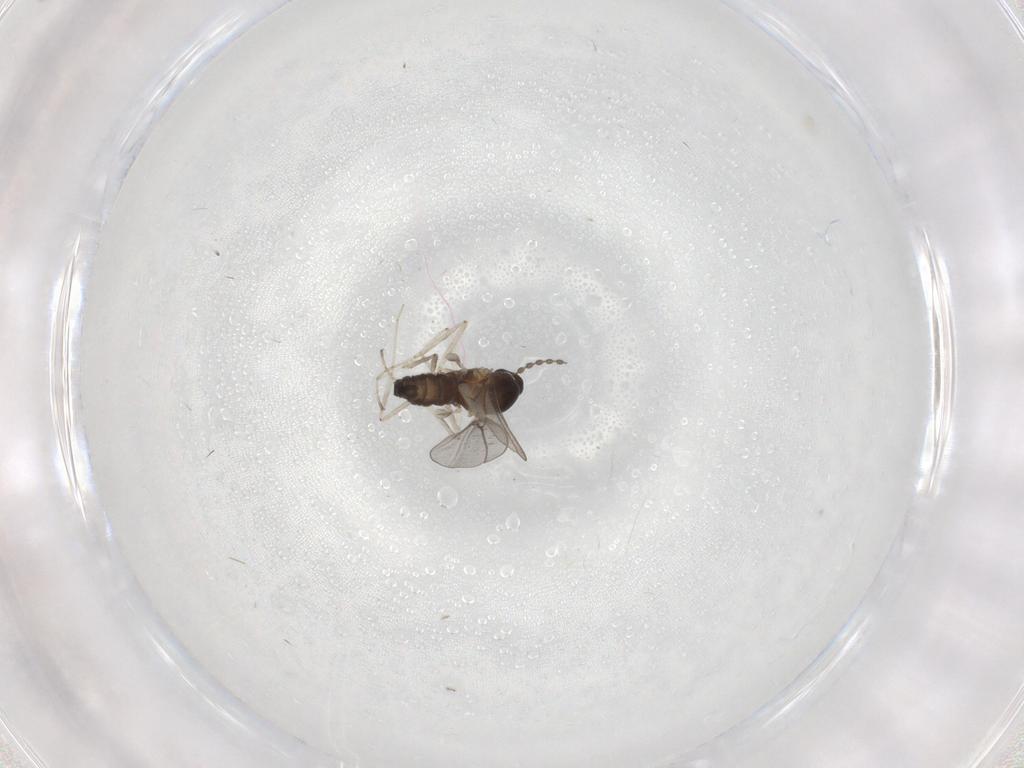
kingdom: Animalia
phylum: Arthropoda
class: Insecta
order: Diptera
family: Cecidomyiidae
